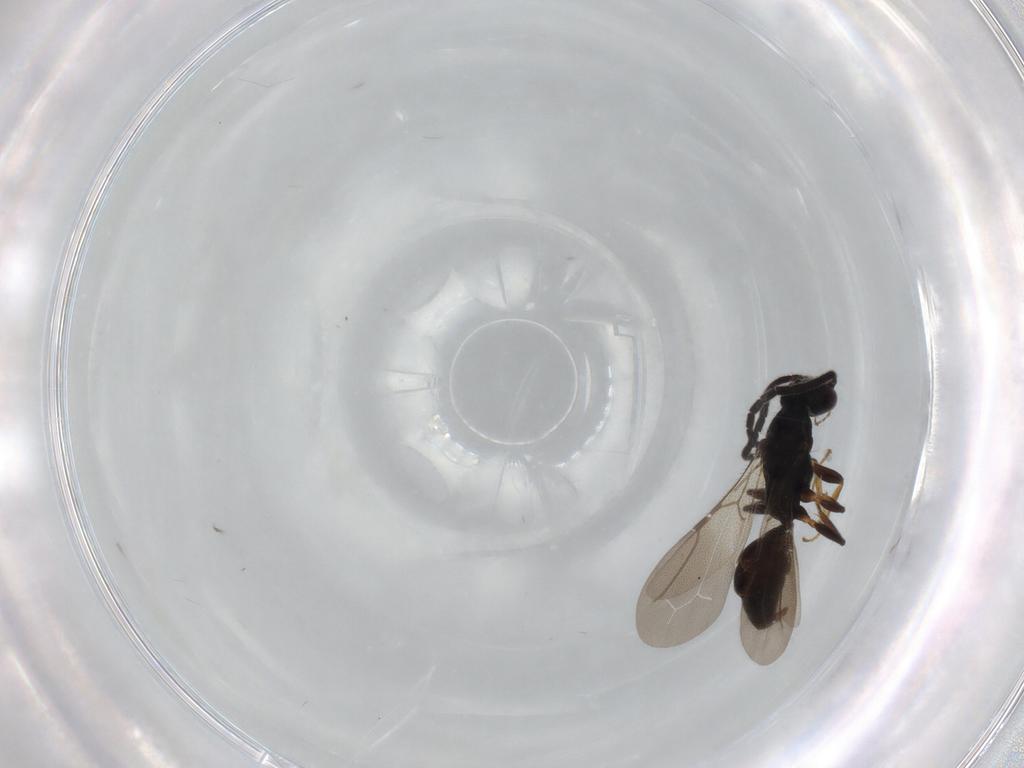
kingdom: Animalia
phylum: Arthropoda
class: Insecta
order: Hymenoptera
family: Bethylidae
